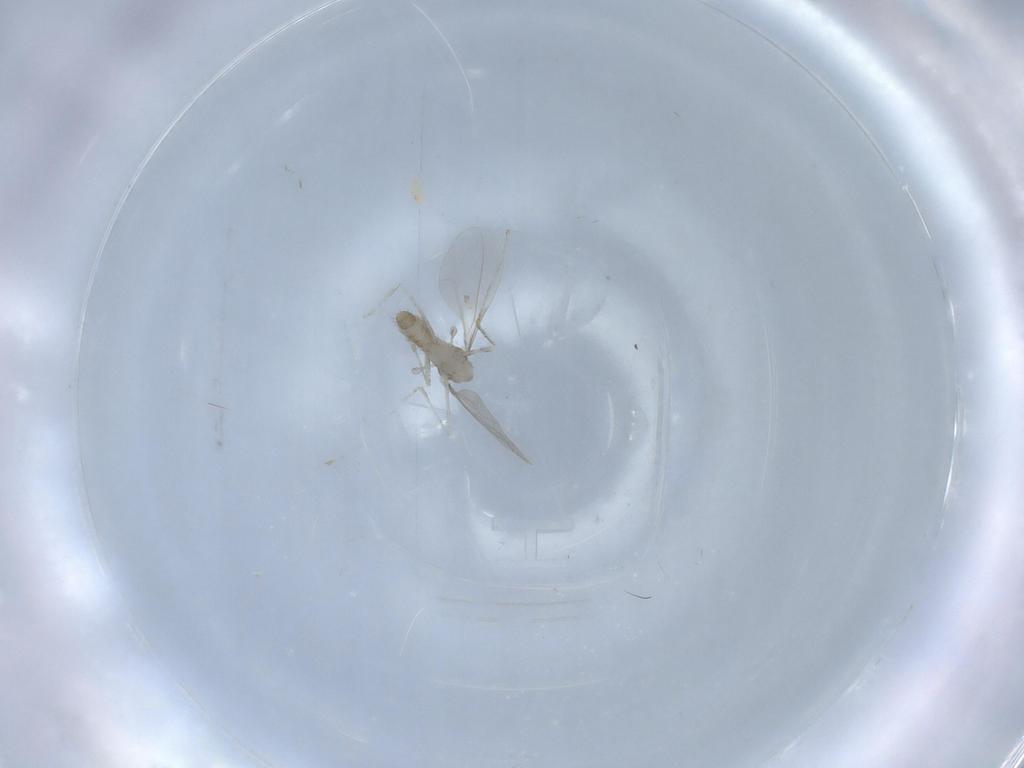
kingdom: Animalia
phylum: Arthropoda
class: Insecta
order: Diptera
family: Chironomidae
